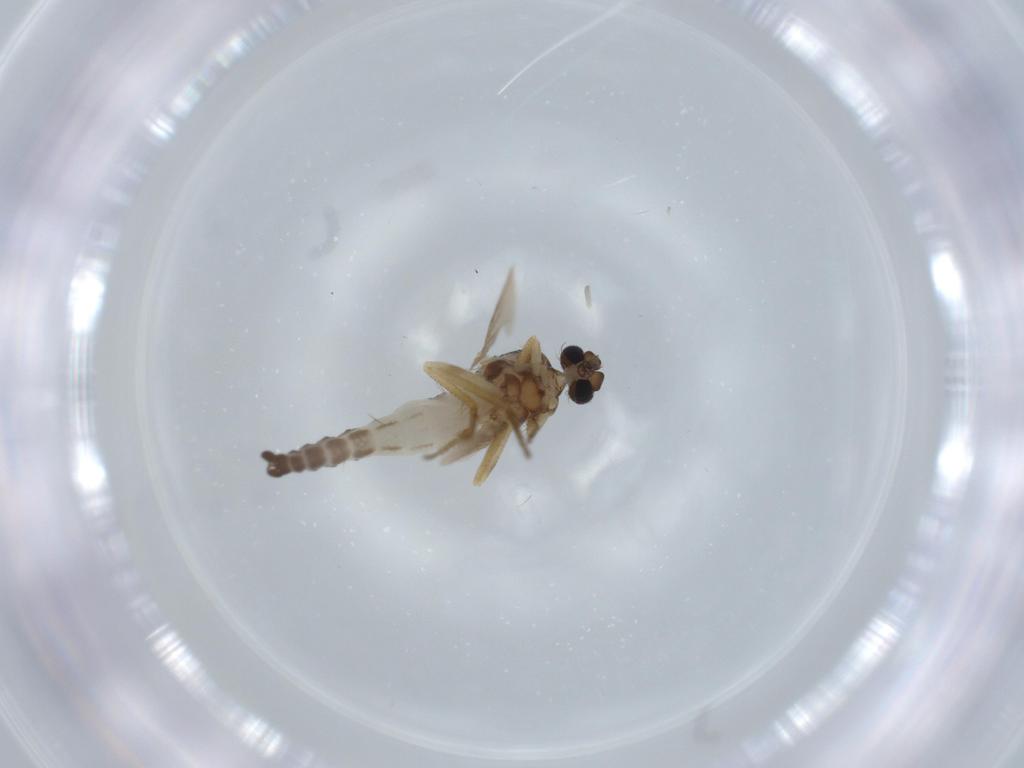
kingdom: Animalia
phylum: Arthropoda
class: Insecta
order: Diptera
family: Drosophilidae
